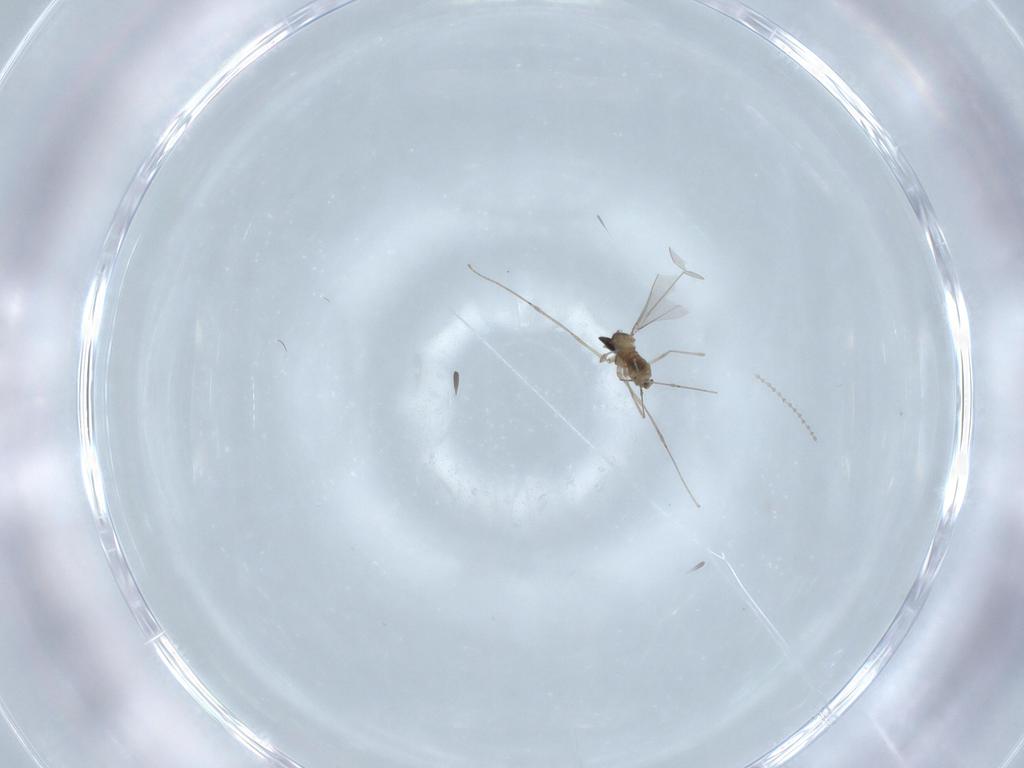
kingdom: Animalia
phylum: Arthropoda
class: Insecta
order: Diptera
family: Cecidomyiidae
